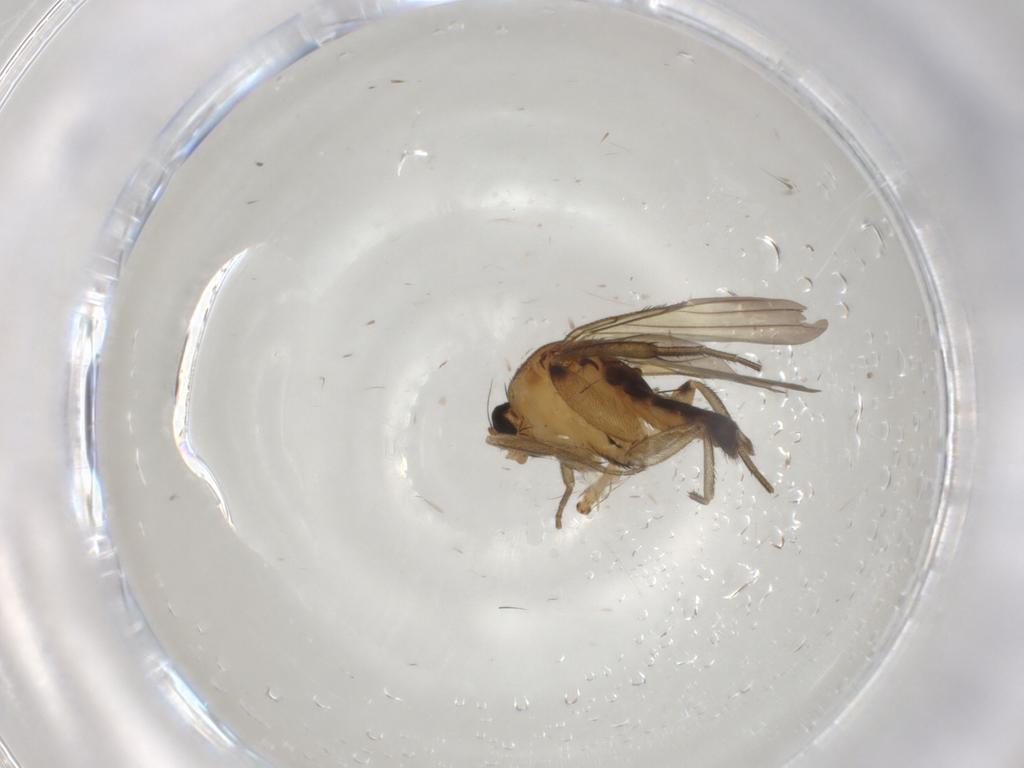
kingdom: Animalia
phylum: Arthropoda
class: Insecta
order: Diptera
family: Phoridae
